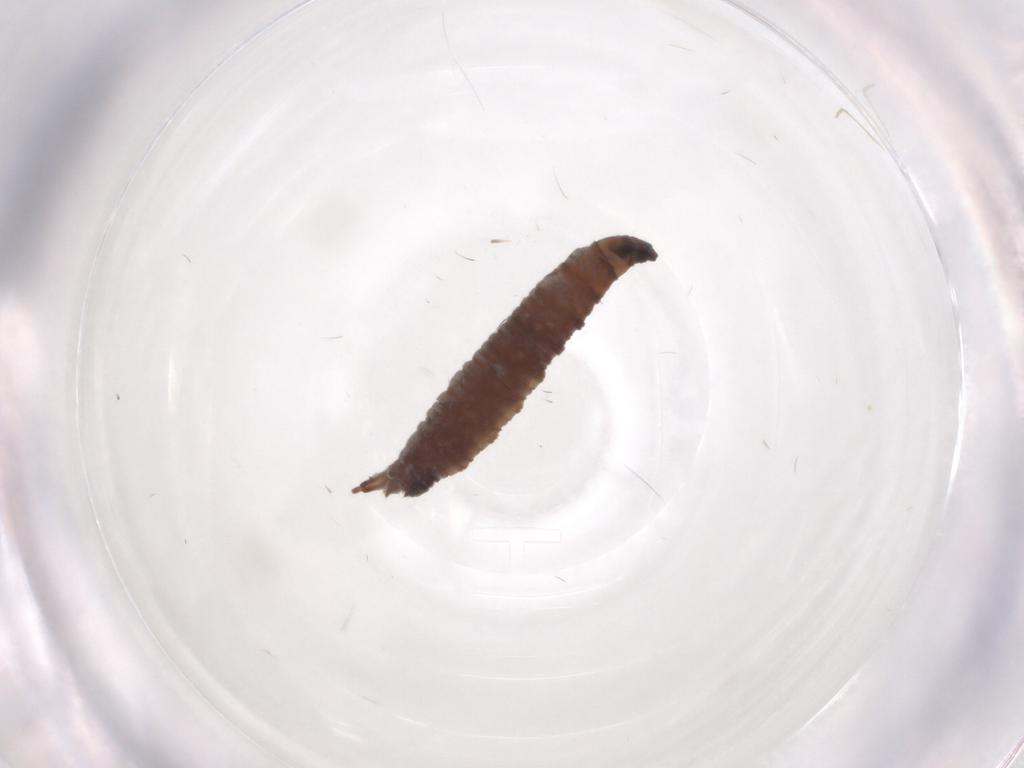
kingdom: Animalia
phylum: Arthropoda
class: Insecta
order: Diptera
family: Drosophilidae
